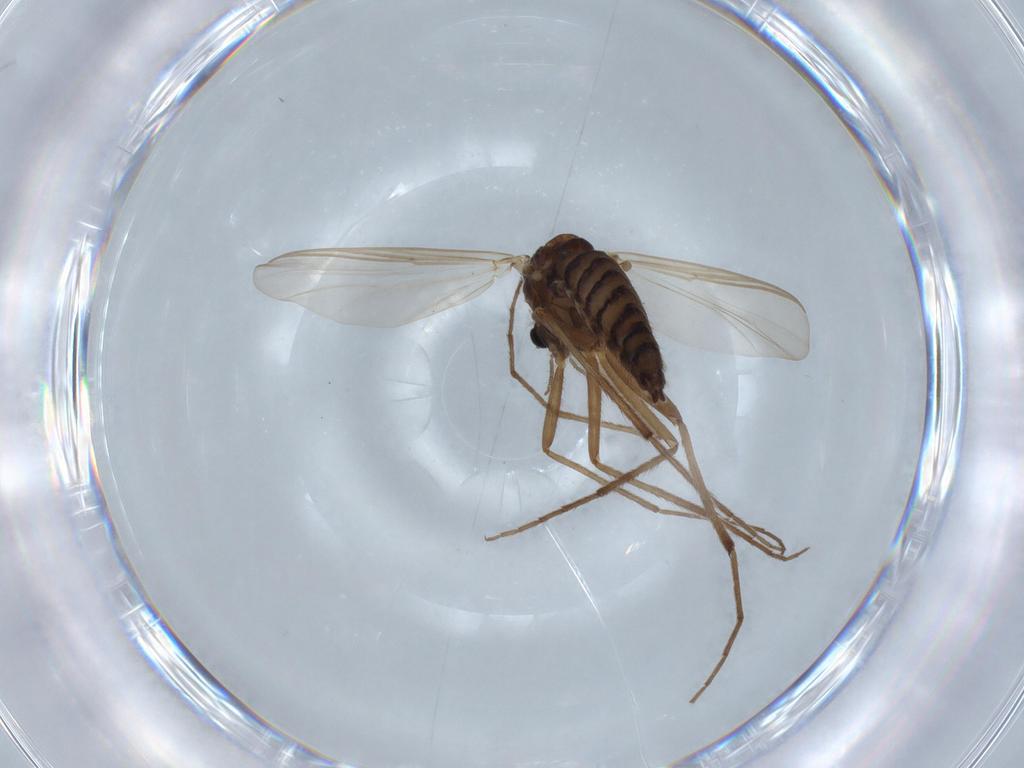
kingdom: Animalia
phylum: Arthropoda
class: Insecta
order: Diptera
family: Chironomidae
